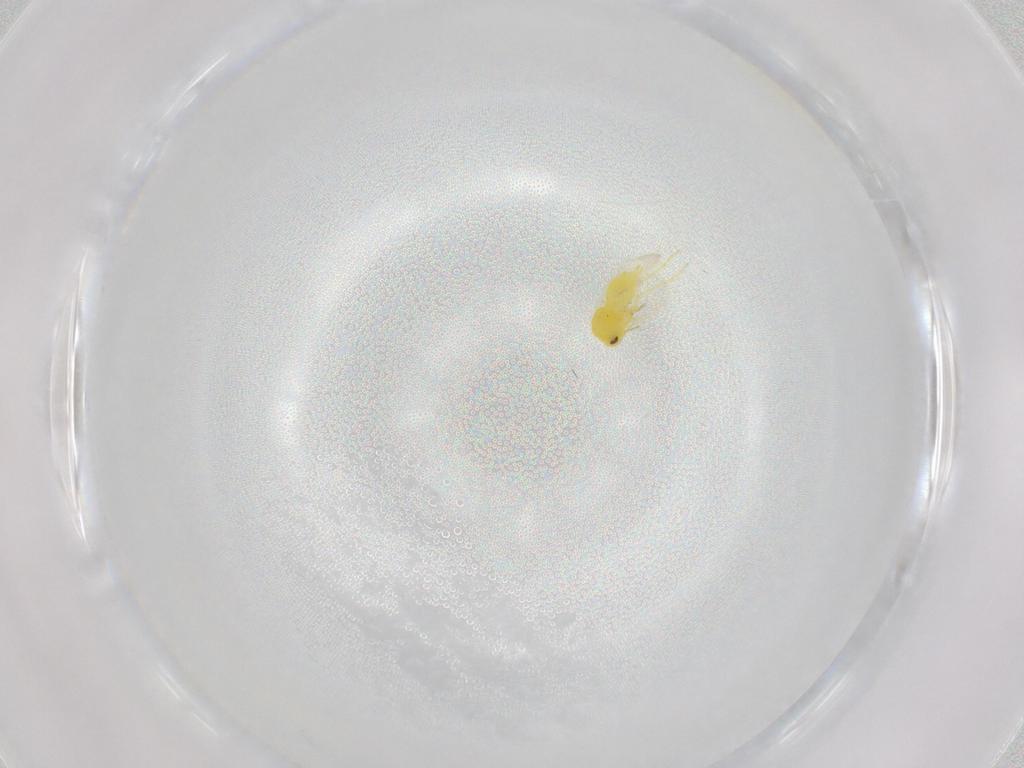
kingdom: Animalia
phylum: Arthropoda
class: Insecta
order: Hemiptera
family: Aleyrodidae
